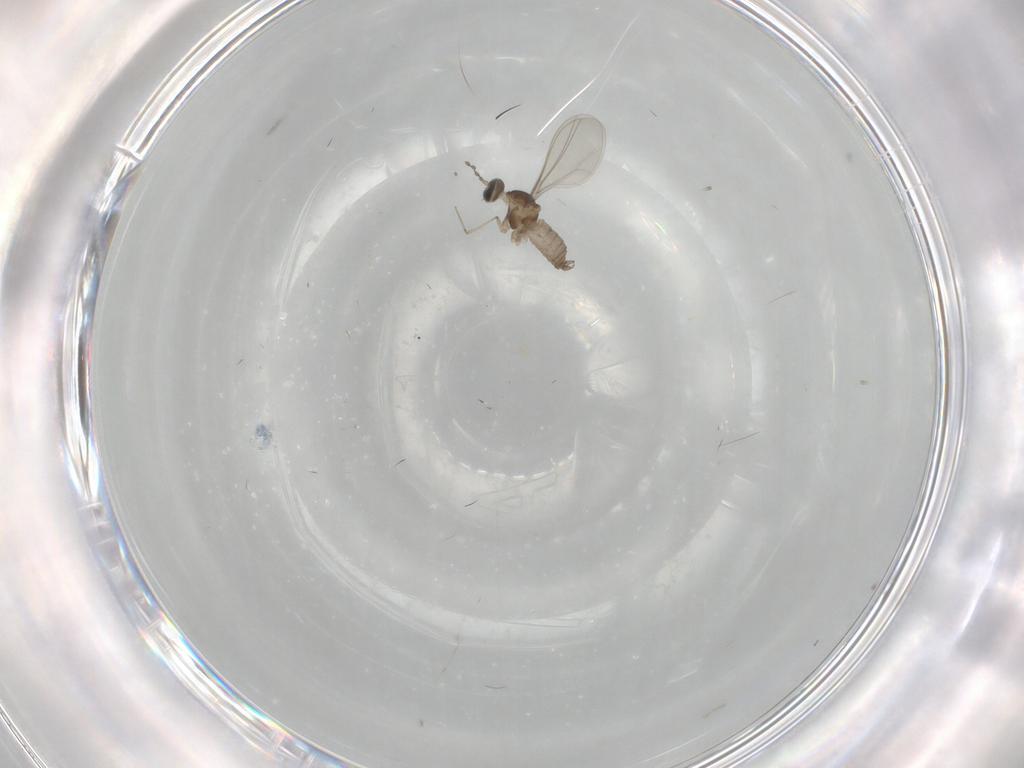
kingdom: Animalia
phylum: Arthropoda
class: Insecta
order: Diptera
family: Cecidomyiidae
